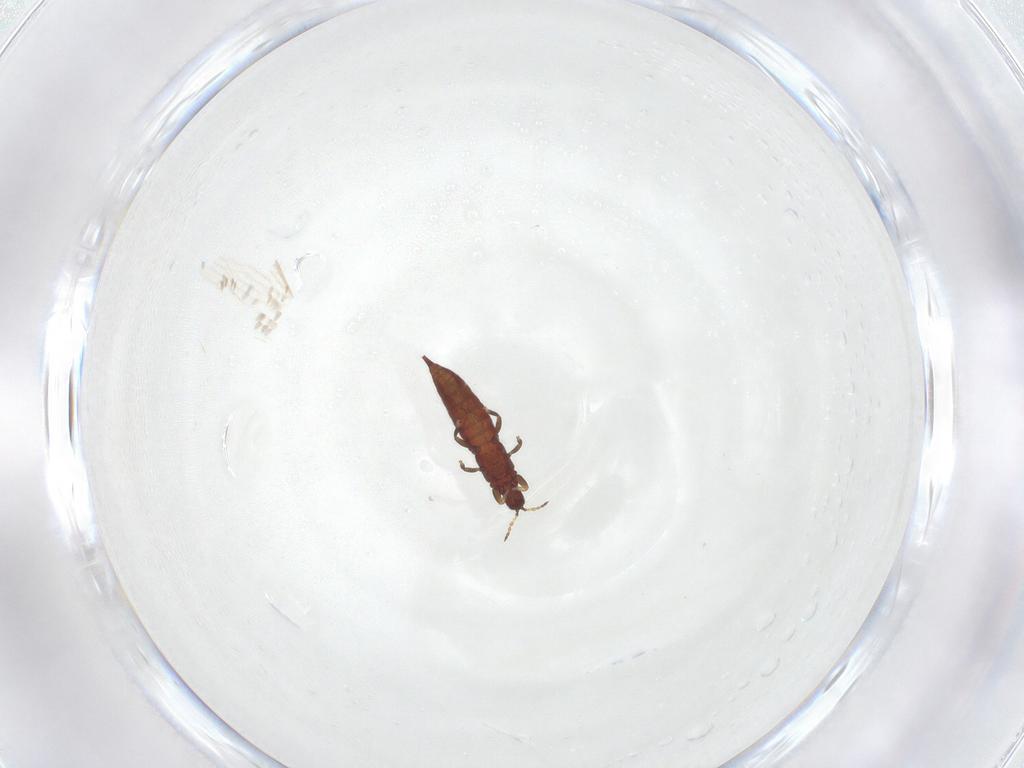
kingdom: Animalia
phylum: Arthropoda
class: Insecta
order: Thysanoptera
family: Phlaeothripidae
